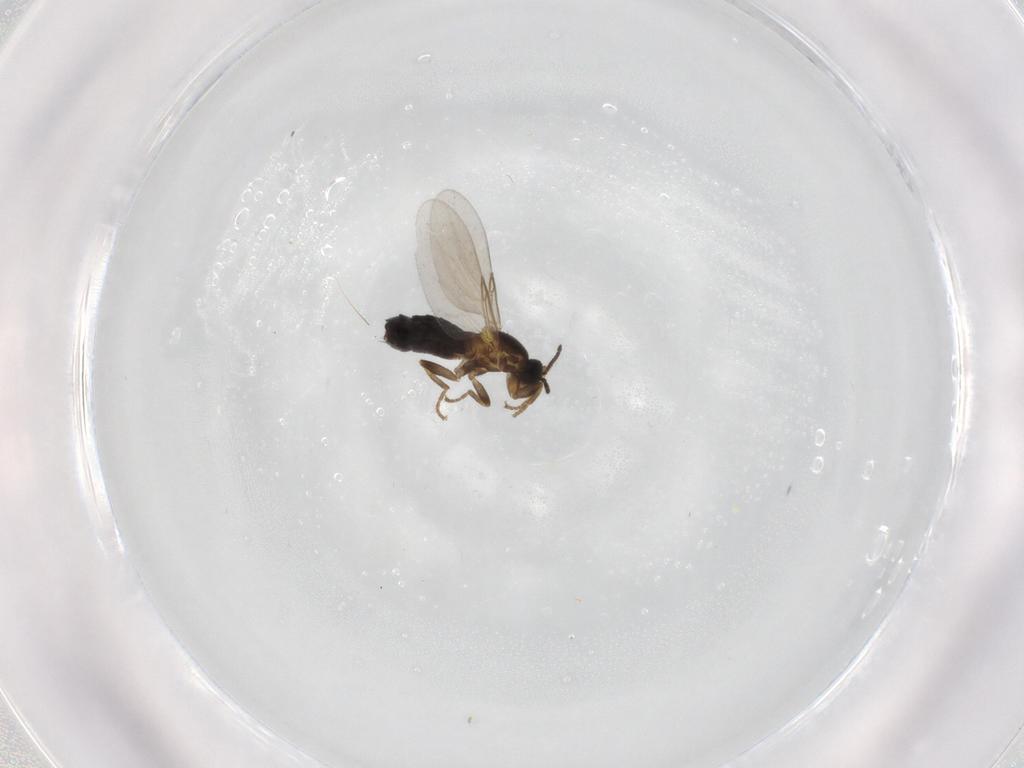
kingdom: Animalia
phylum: Arthropoda
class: Insecta
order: Diptera
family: Scatopsidae
